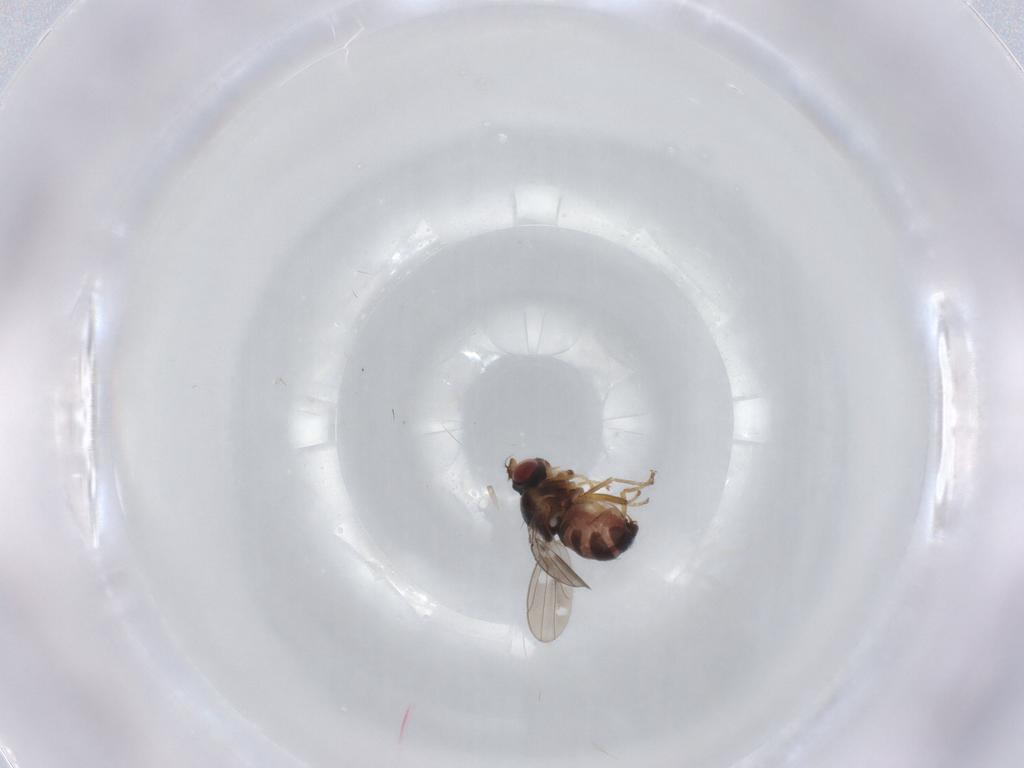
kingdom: Animalia
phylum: Arthropoda
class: Insecta
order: Diptera
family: Ephydridae
